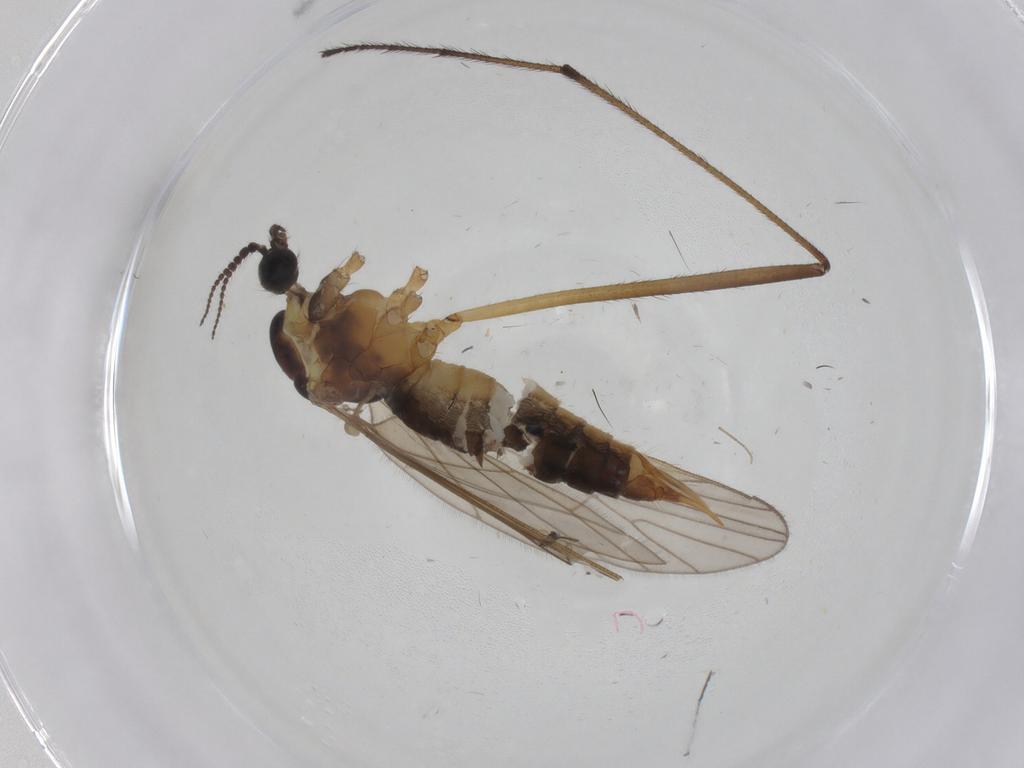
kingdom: Animalia
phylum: Arthropoda
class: Insecta
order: Diptera
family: Agromyzidae
